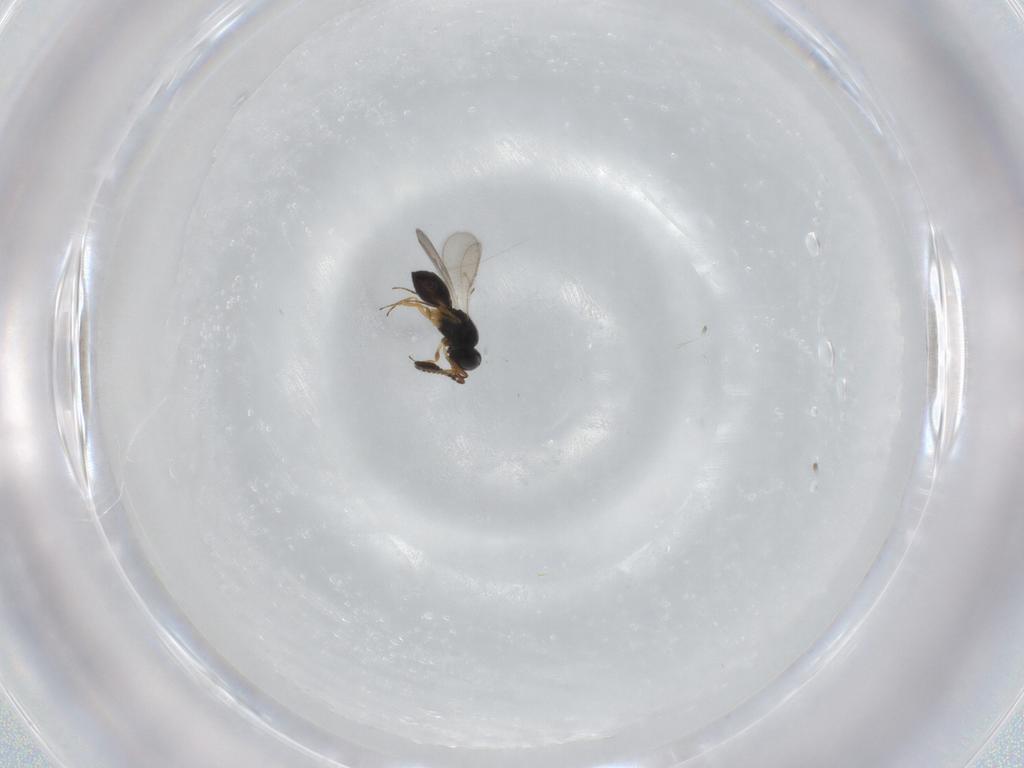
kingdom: Animalia
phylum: Arthropoda
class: Insecta
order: Hymenoptera
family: Scelionidae
